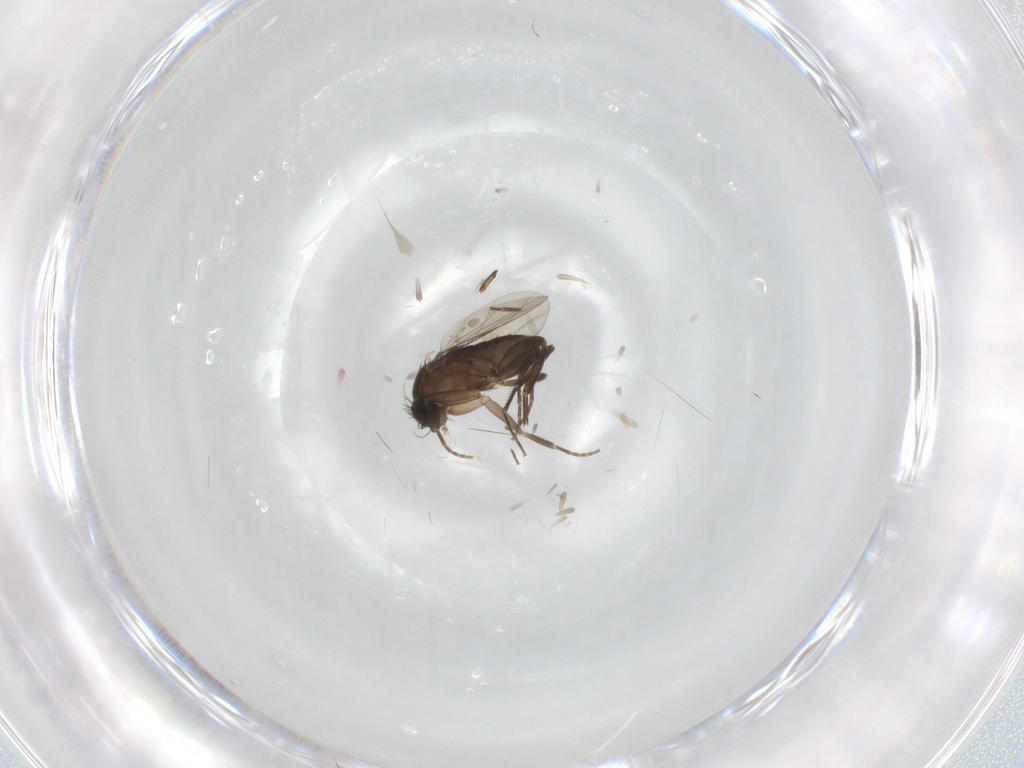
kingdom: Animalia
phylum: Arthropoda
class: Insecta
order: Diptera
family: Phoridae
